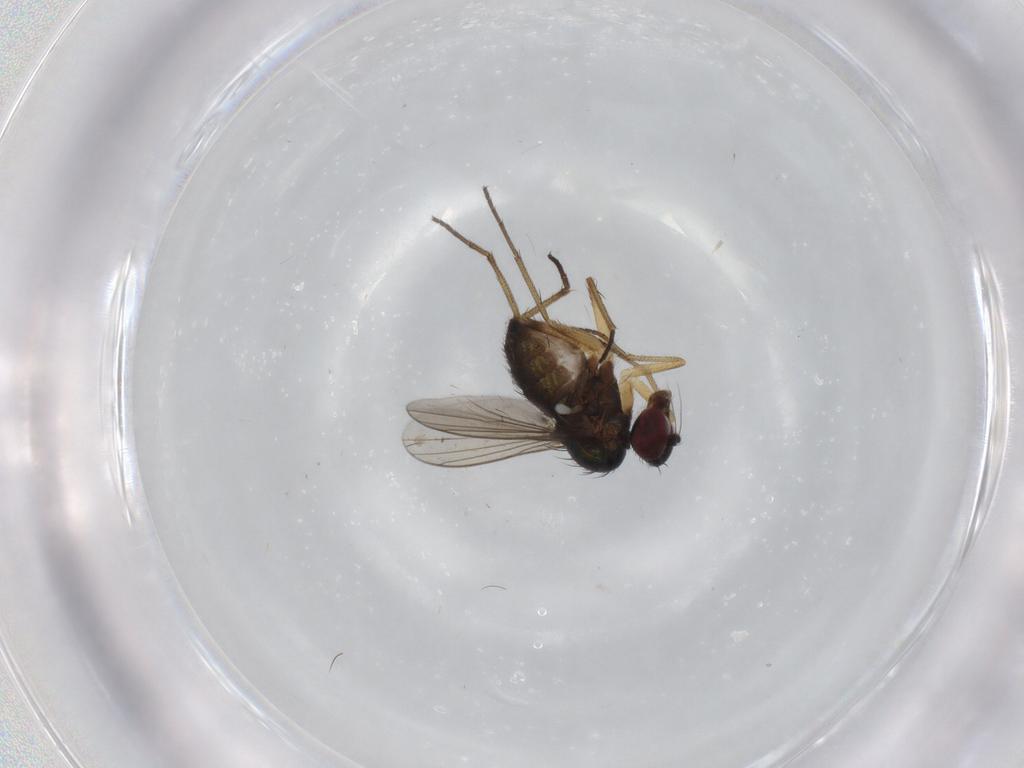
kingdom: Animalia
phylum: Arthropoda
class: Insecta
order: Diptera
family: Dolichopodidae
